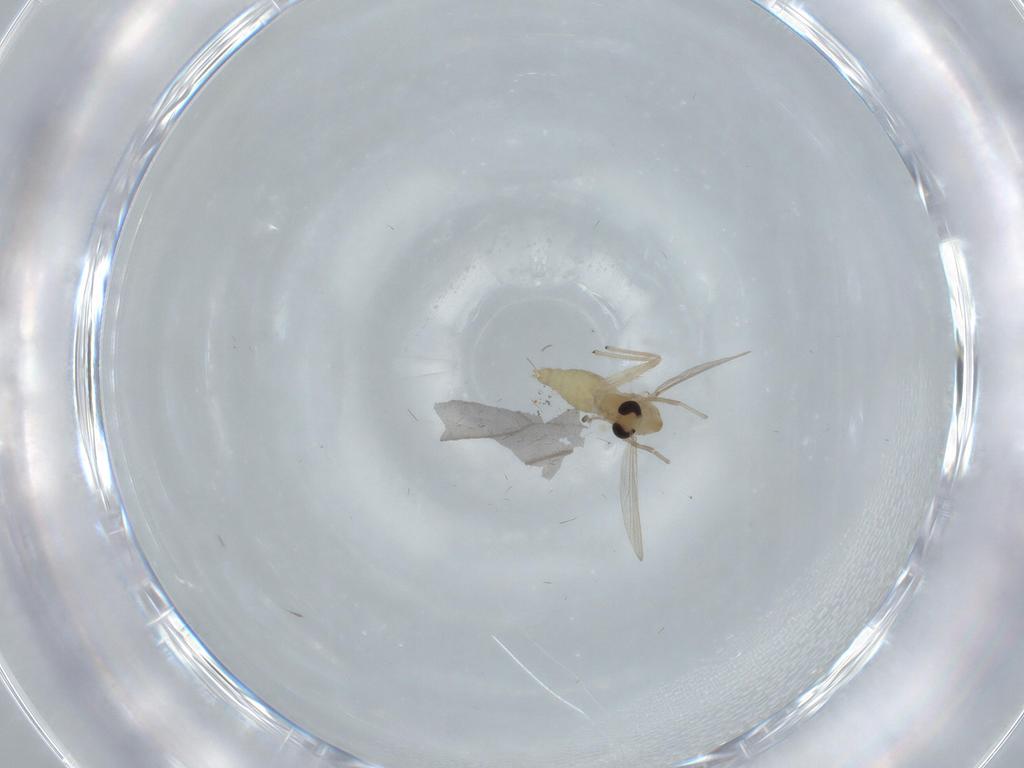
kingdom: Animalia
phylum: Arthropoda
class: Insecta
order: Diptera
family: Chironomidae
